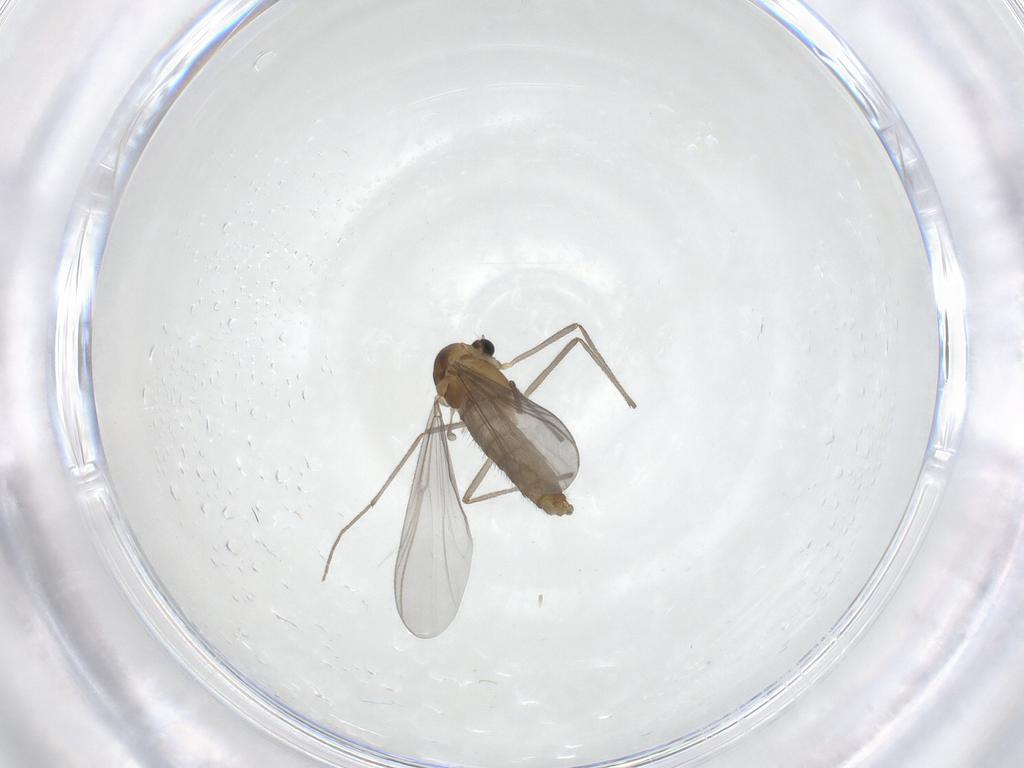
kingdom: Animalia
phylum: Arthropoda
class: Insecta
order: Diptera
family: Chironomidae
